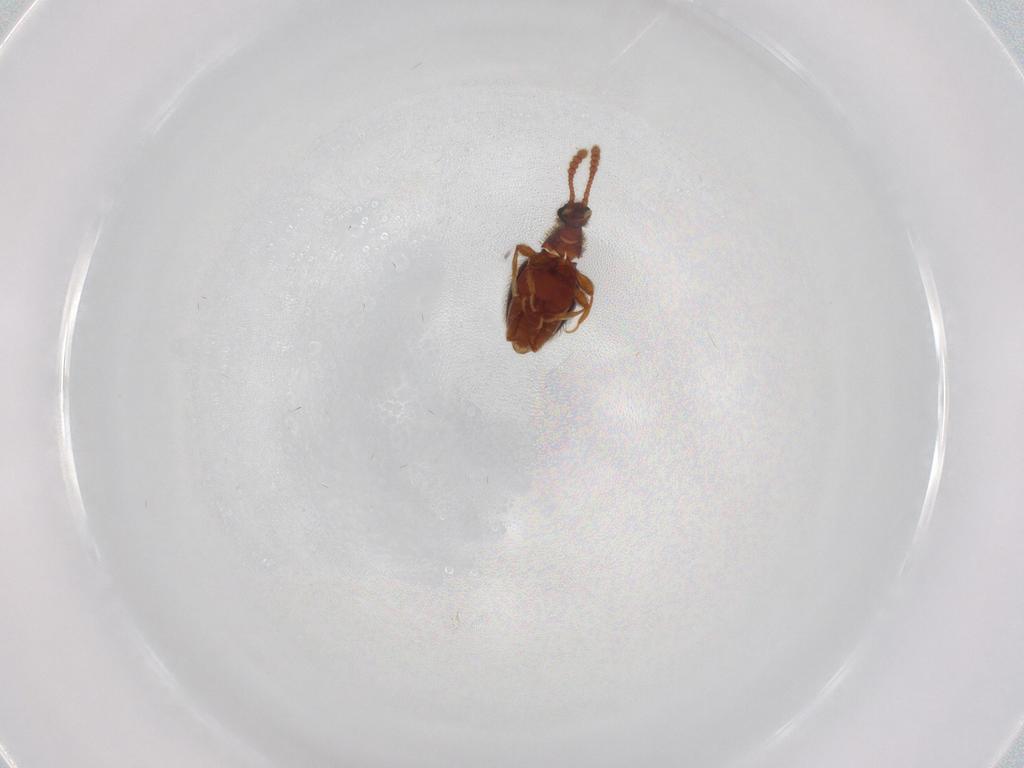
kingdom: Animalia
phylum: Arthropoda
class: Insecta
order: Coleoptera
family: Staphylinidae
